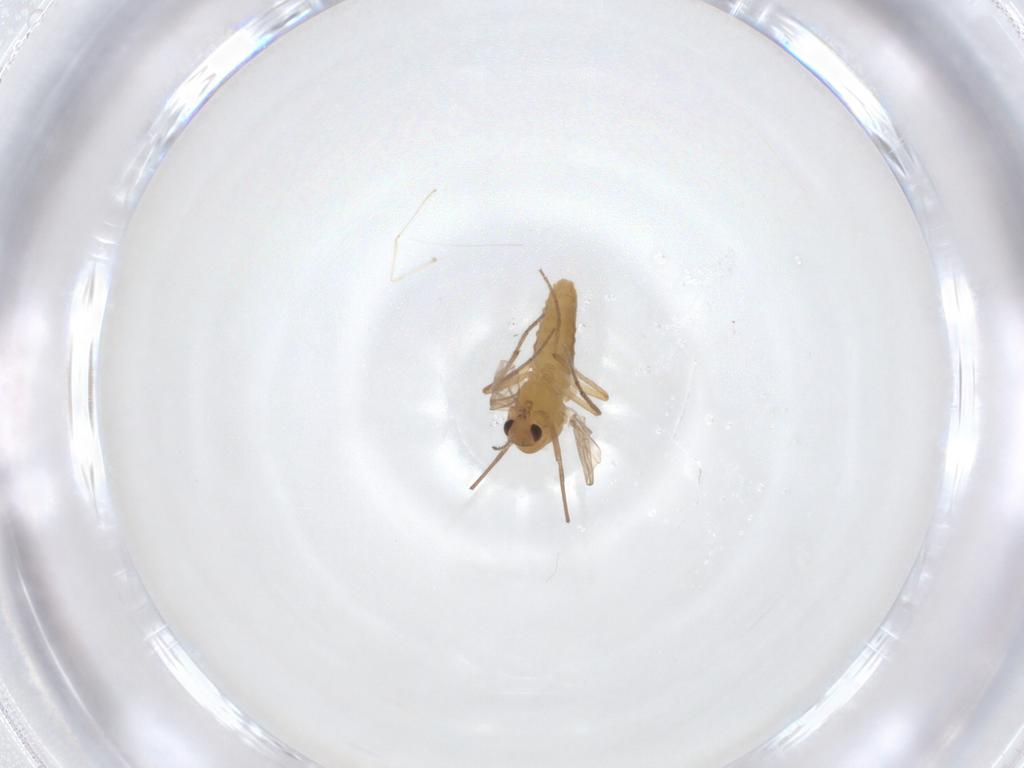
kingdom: Animalia
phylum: Arthropoda
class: Insecta
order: Diptera
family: Chironomidae
